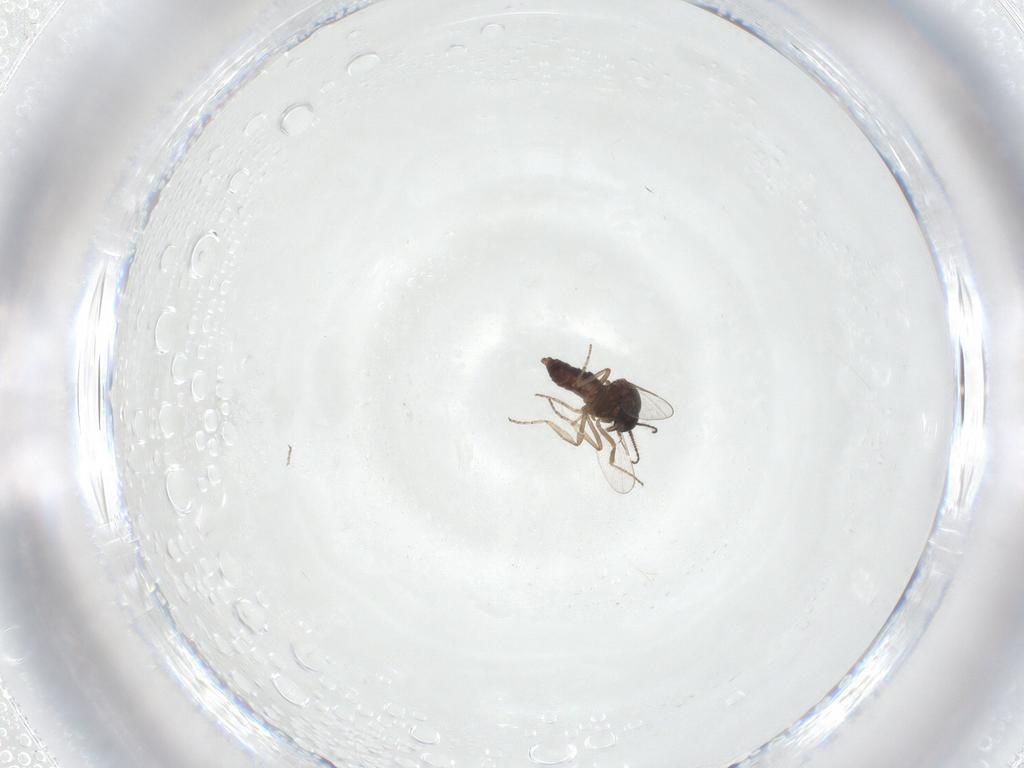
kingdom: Animalia
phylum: Arthropoda
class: Insecta
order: Diptera
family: Ceratopogonidae
